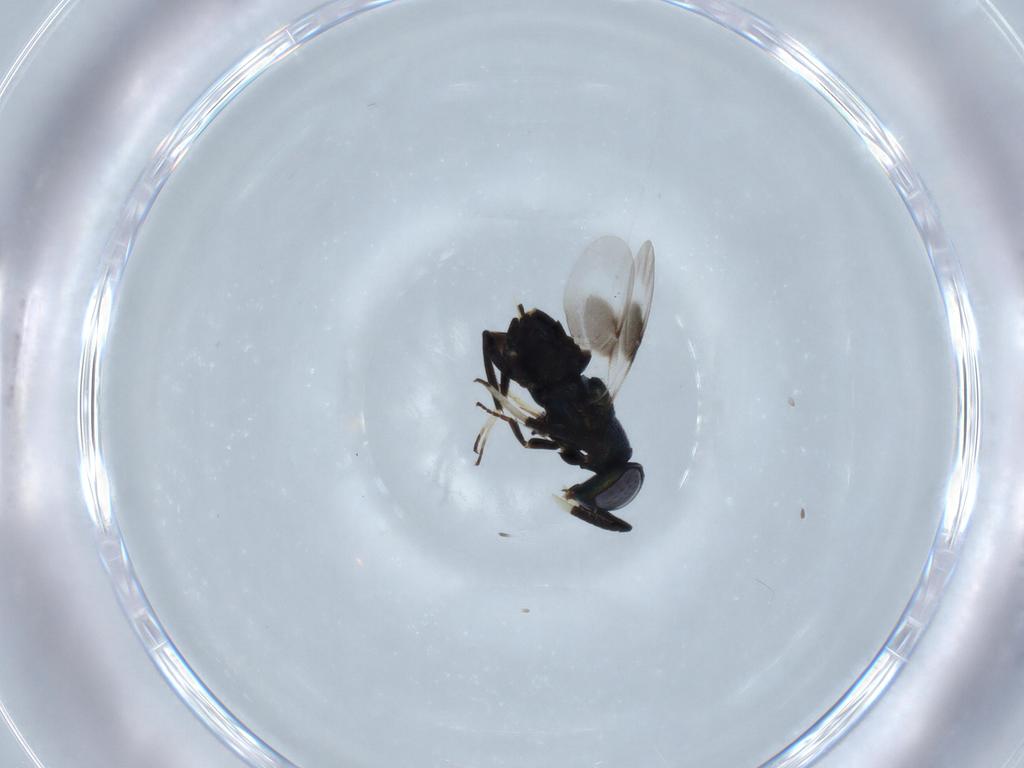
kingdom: Animalia
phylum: Arthropoda
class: Insecta
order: Hymenoptera
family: Encyrtidae
